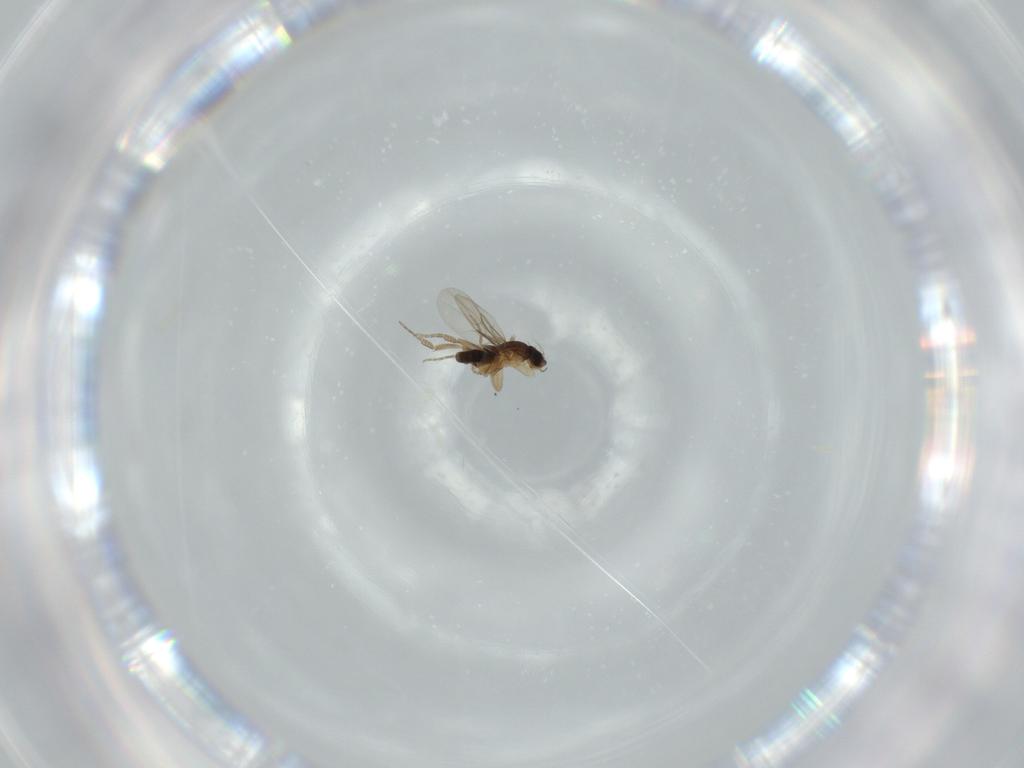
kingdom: Animalia
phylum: Arthropoda
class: Insecta
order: Diptera
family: Phoridae
